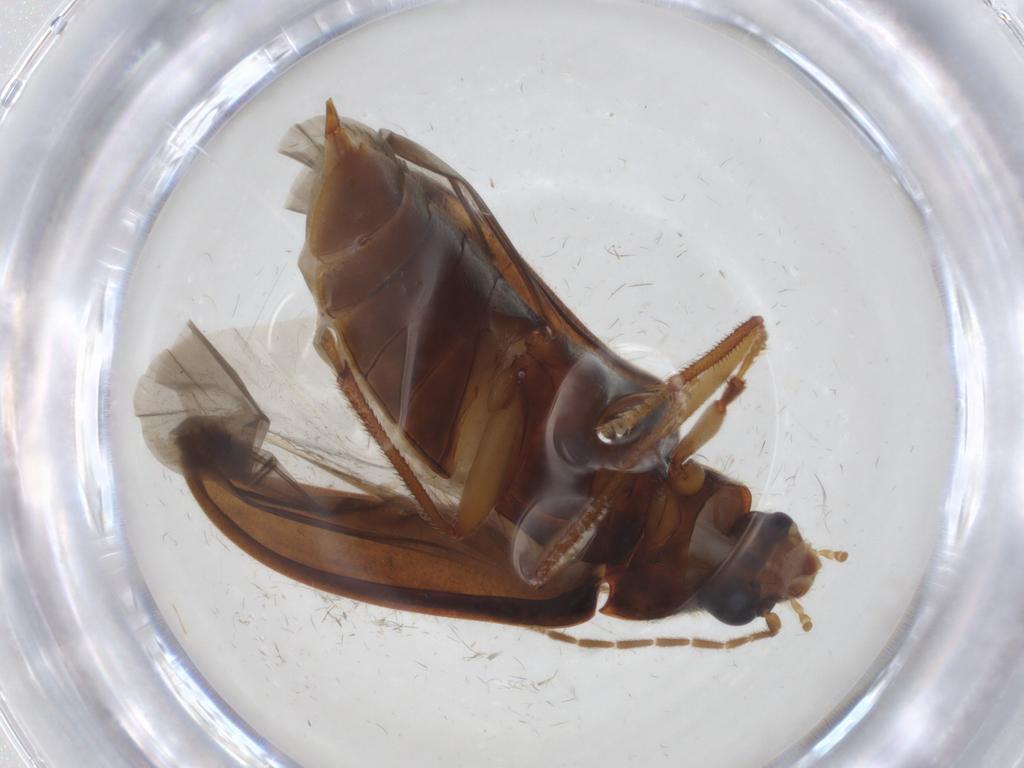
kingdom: Animalia
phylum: Arthropoda
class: Insecta
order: Coleoptera
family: Ptilodactylidae
